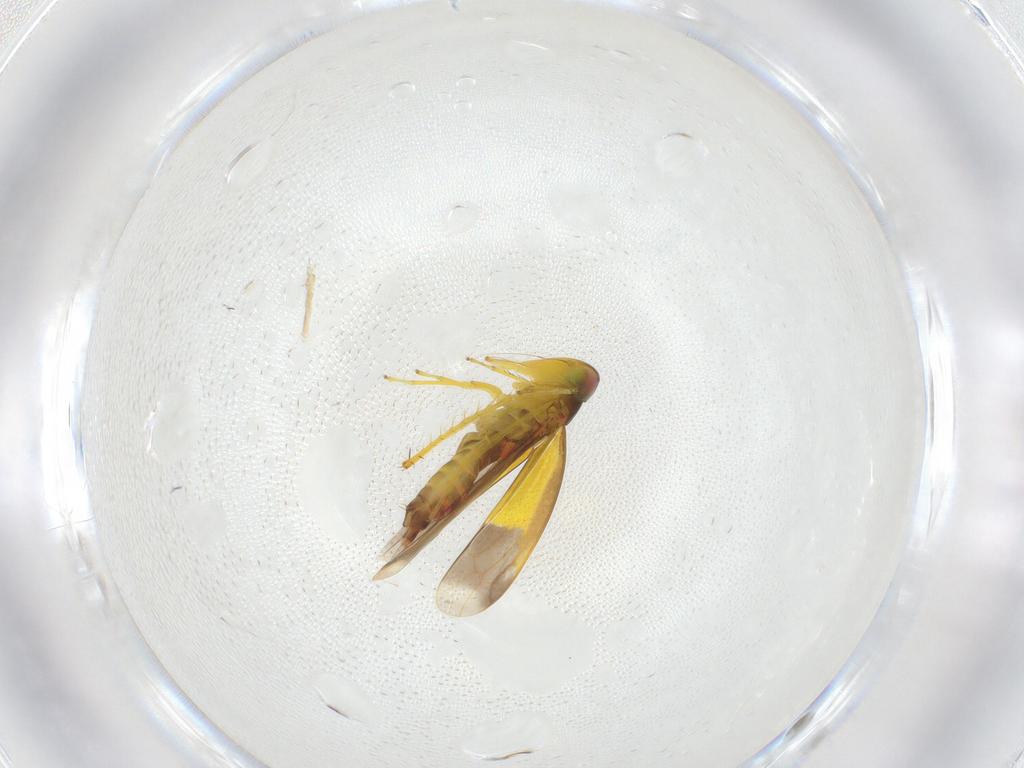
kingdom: Animalia
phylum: Arthropoda
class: Insecta
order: Hemiptera
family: Cicadellidae
